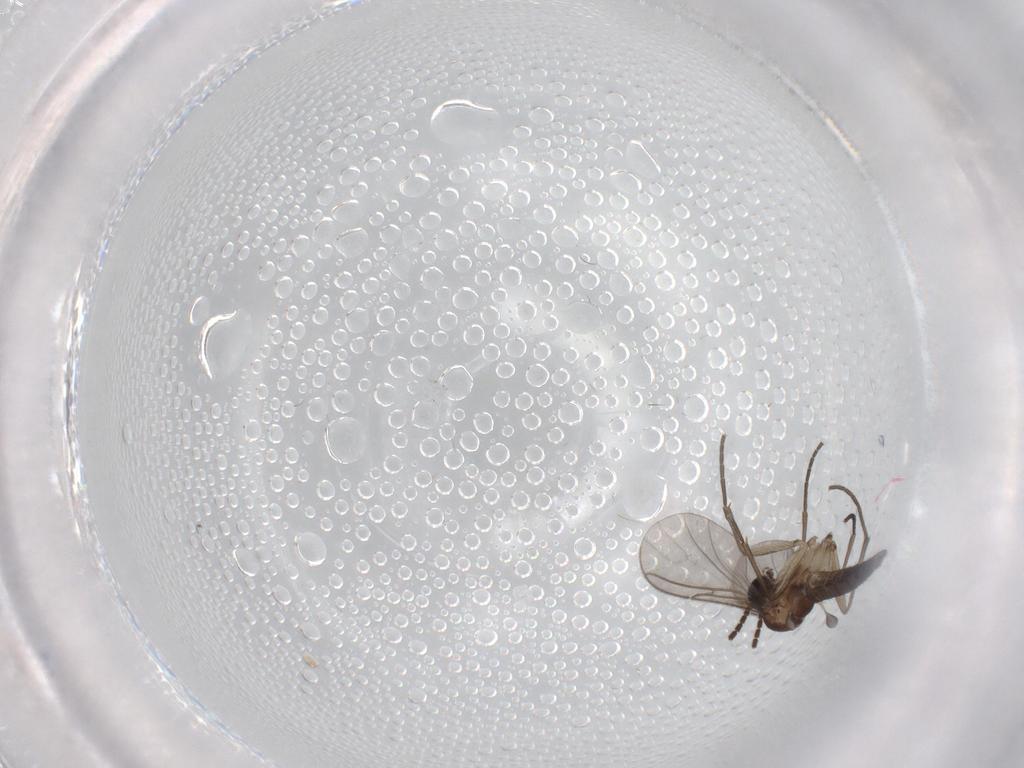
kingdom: Animalia
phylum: Arthropoda
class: Insecta
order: Diptera
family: Sciaridae
